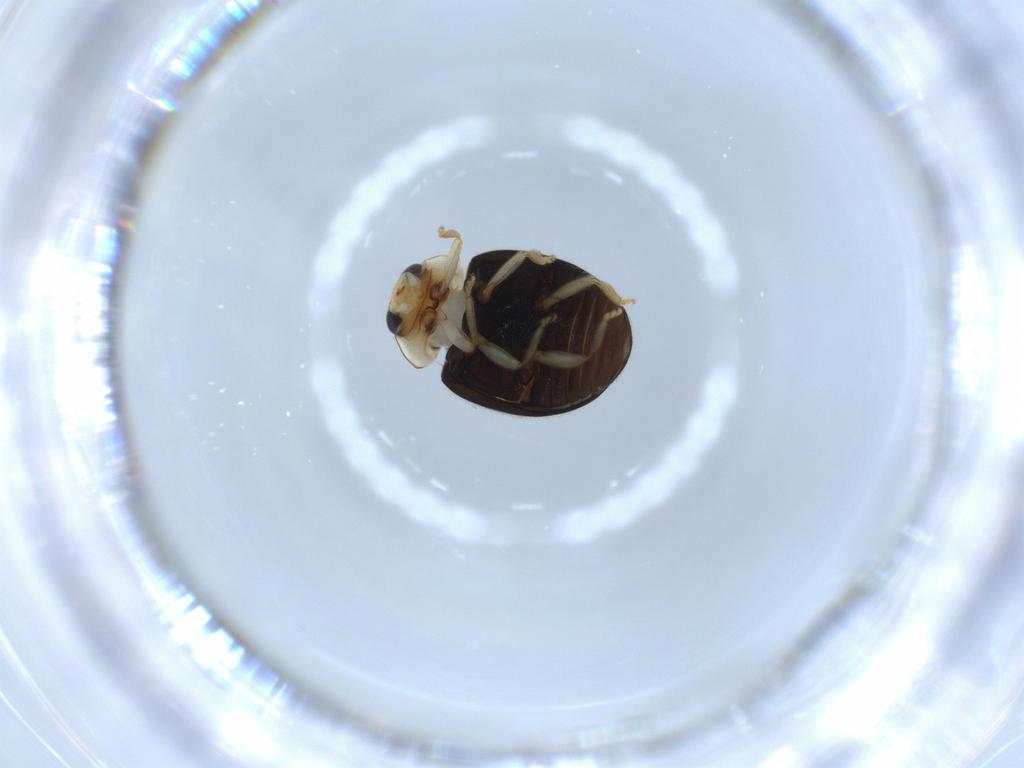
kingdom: Animalia
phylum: Arthropoda
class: Insecta
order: Coleoptera
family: Coccinellidae
